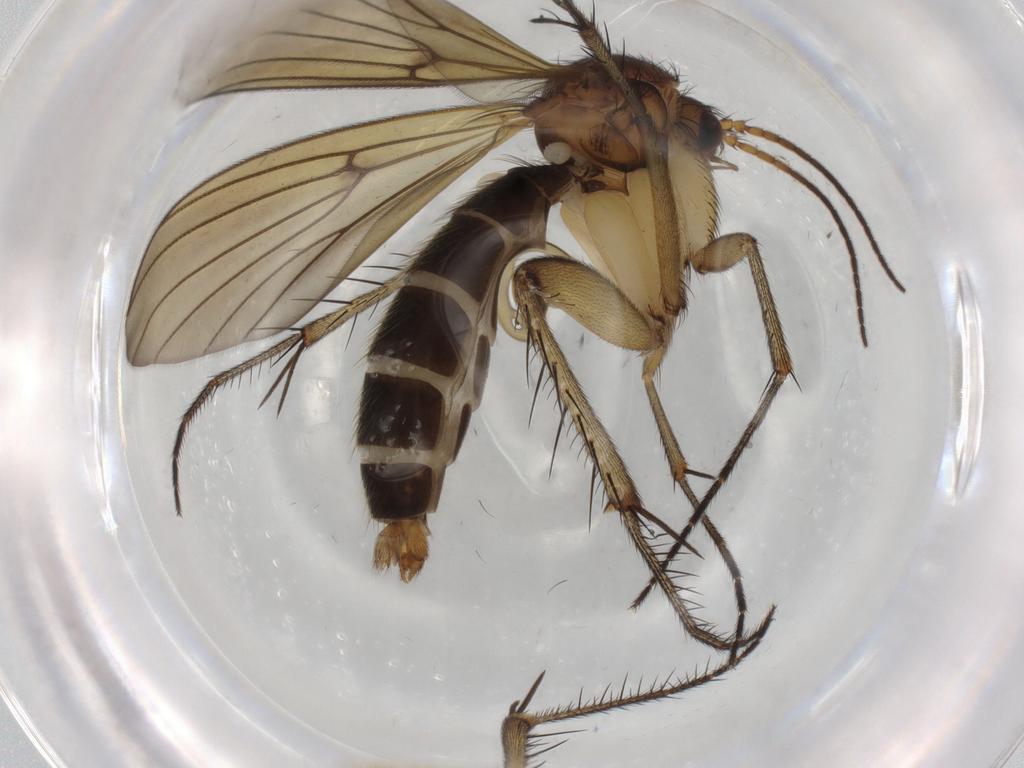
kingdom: Animalia
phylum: Arthropoda
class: Insecta
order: Diptera
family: Mycetophilidae
